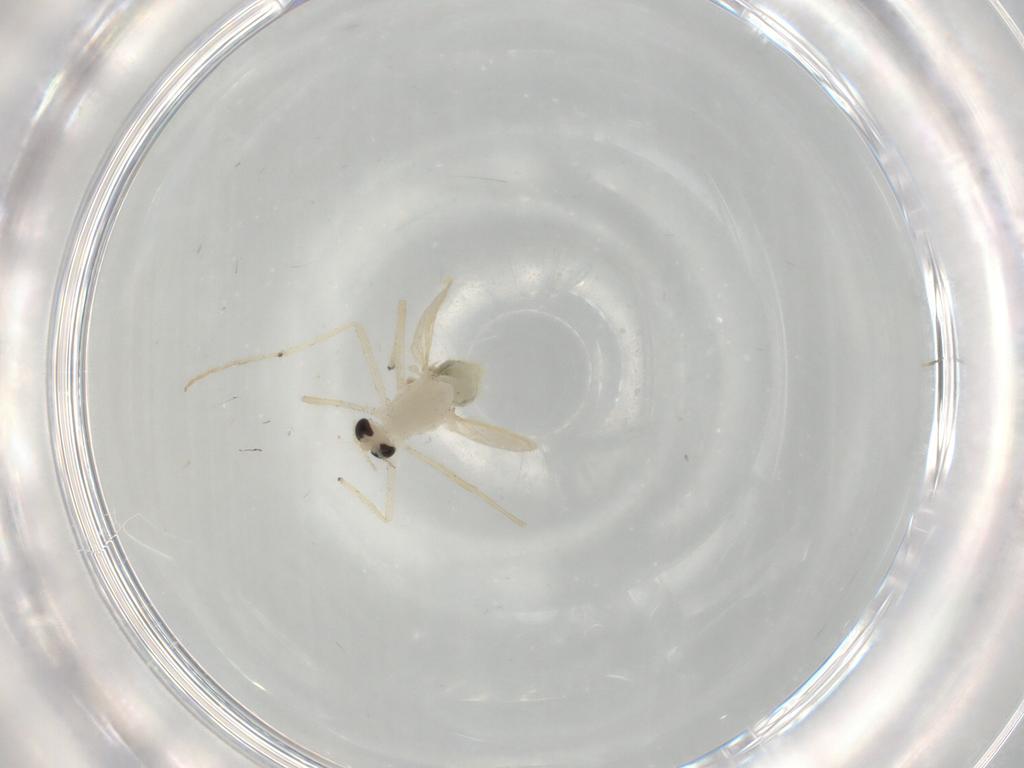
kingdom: Animalia
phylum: Arthropoda
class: Insecta
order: Diptera
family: Chironomidae
